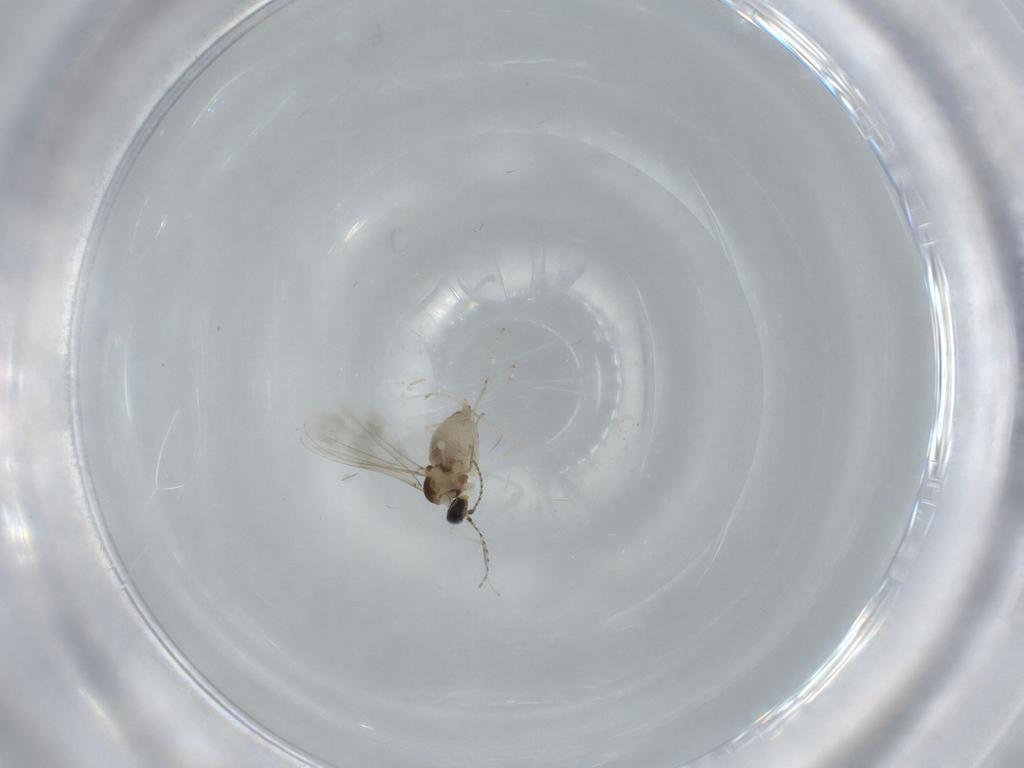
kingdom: Animalia
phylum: Arthropoda
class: Insecta
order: Diptera
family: Cecidomyiidae
